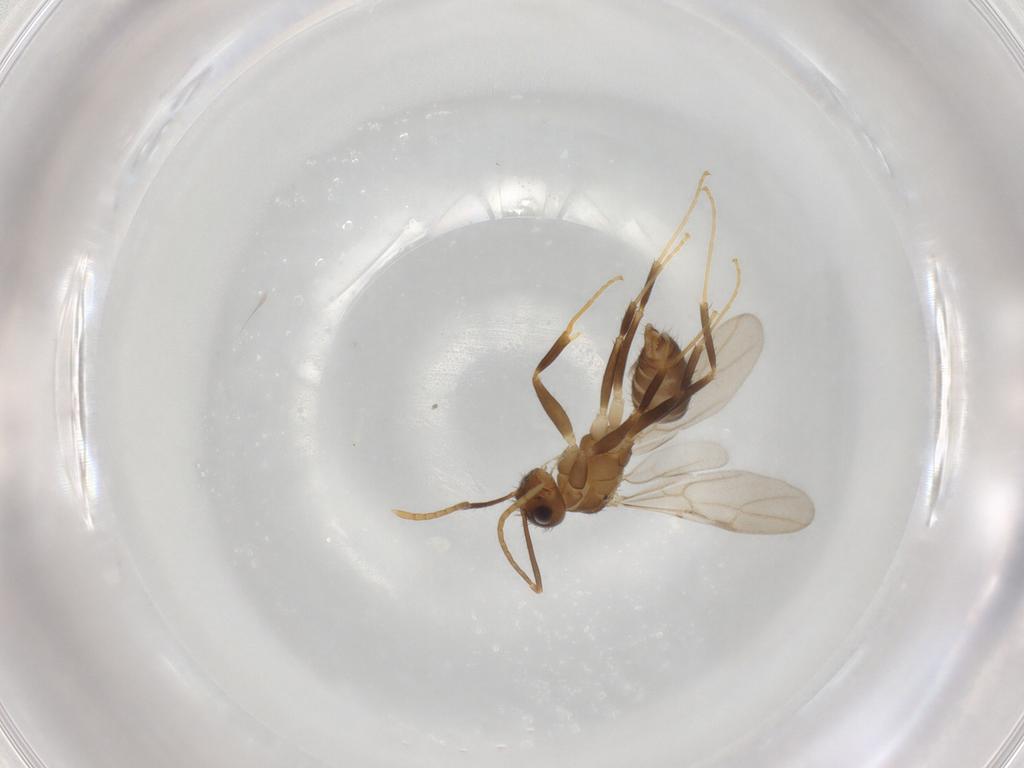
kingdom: Animalia
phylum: Arthropoda
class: Insecta
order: Hymenoptera
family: Formicidae
